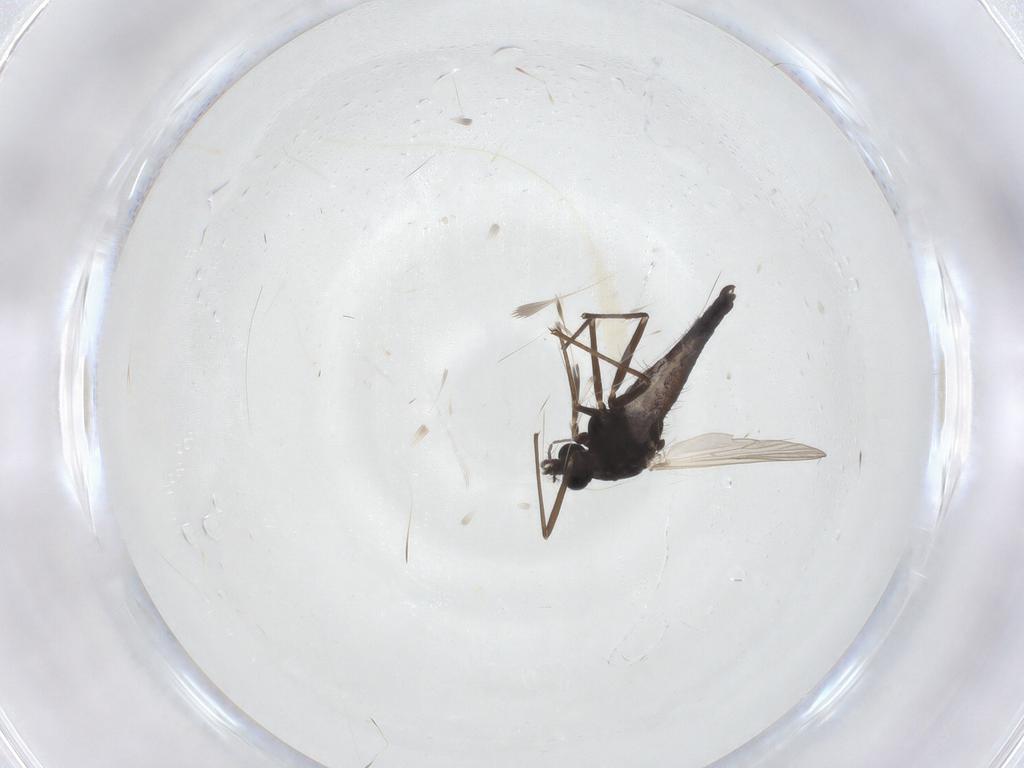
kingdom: Animalia
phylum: Arthropoda
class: Insecta
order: Diptera
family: Chironomidae
